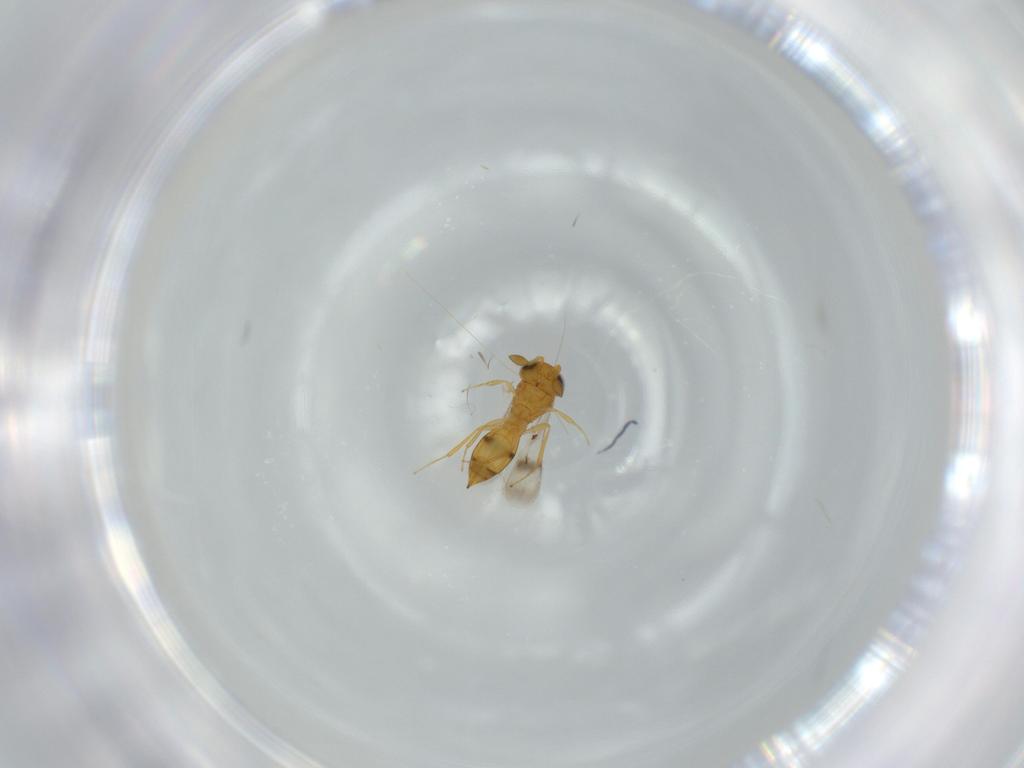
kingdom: Animalia
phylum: Arthropoda
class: Insecta
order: Hymenoptera
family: Scelionidae
